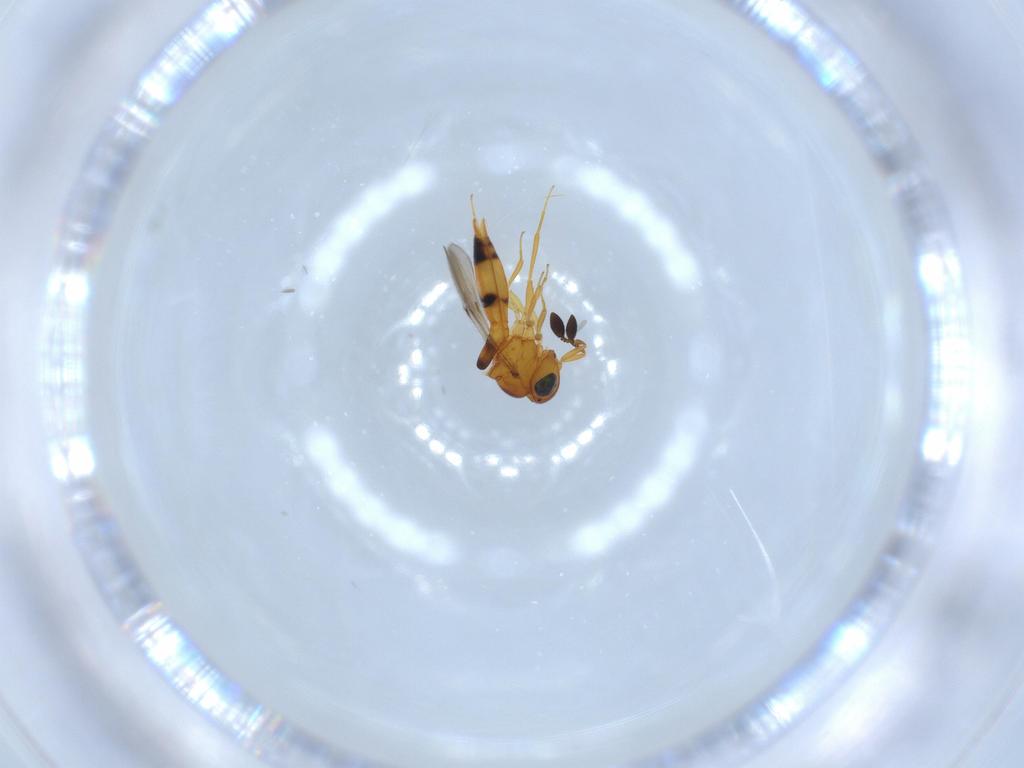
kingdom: Animalia
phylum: Arthropoda
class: Insecta
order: Hymenoptera
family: Scelionidae
